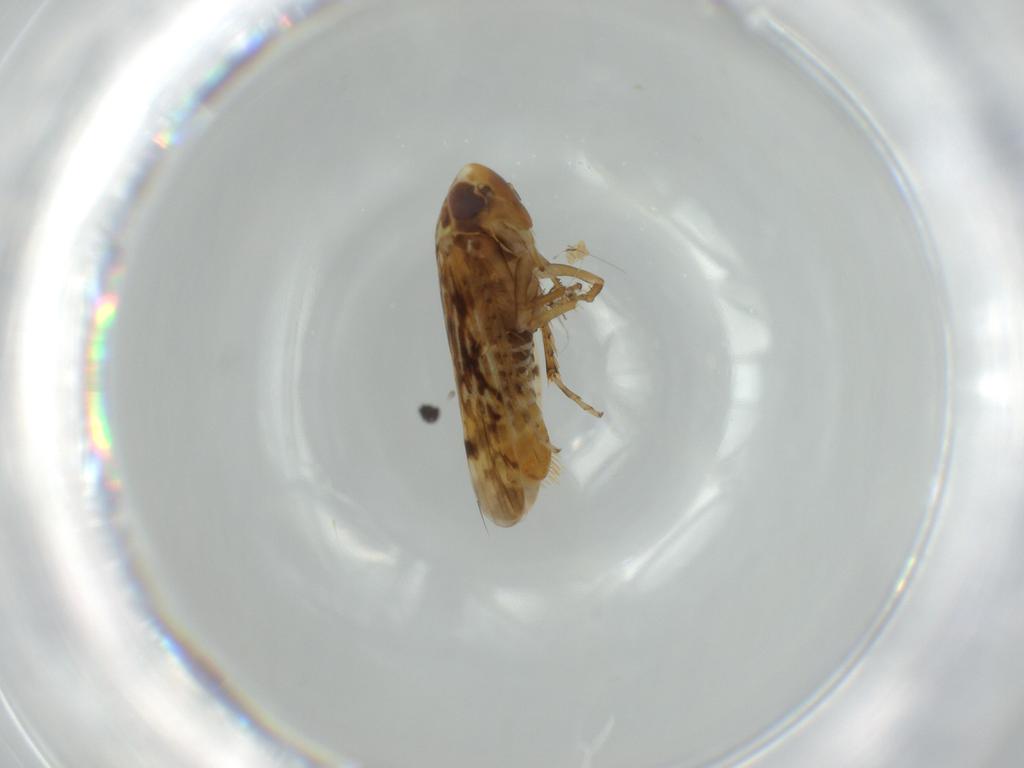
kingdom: Animalia
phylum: Arthropoda
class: Insecta
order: Hemiptera
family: Cicadellidae
